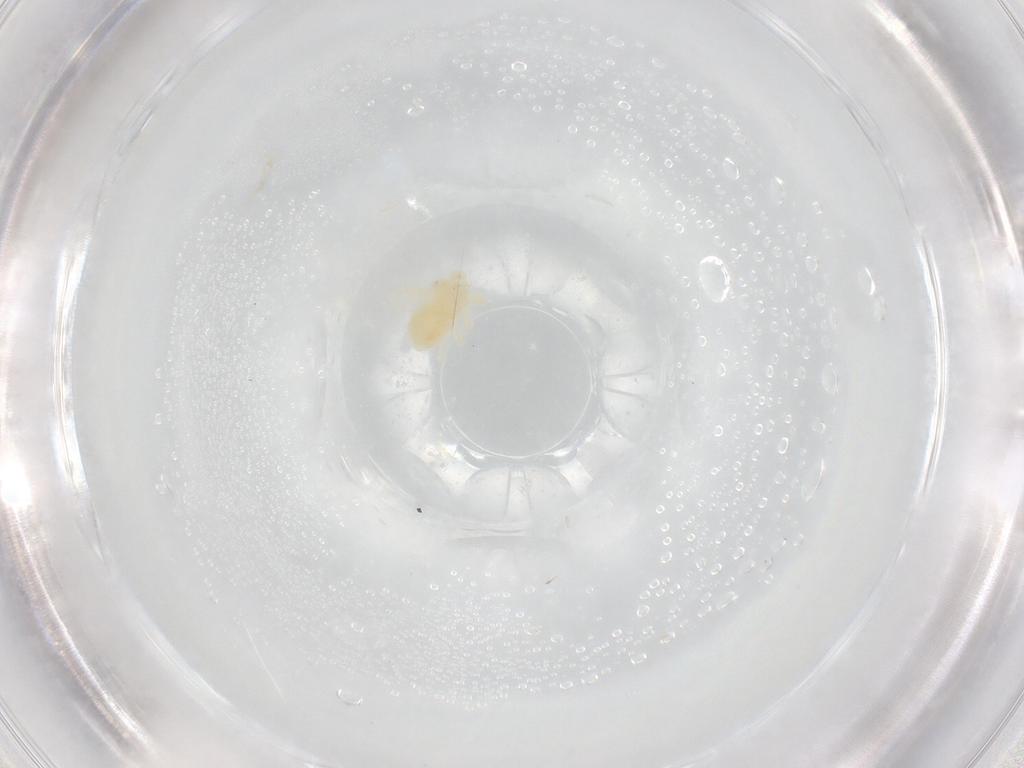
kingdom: Animalia
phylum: Arthropoda
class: Arachnida
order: Trombidiformes
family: Anystidae
